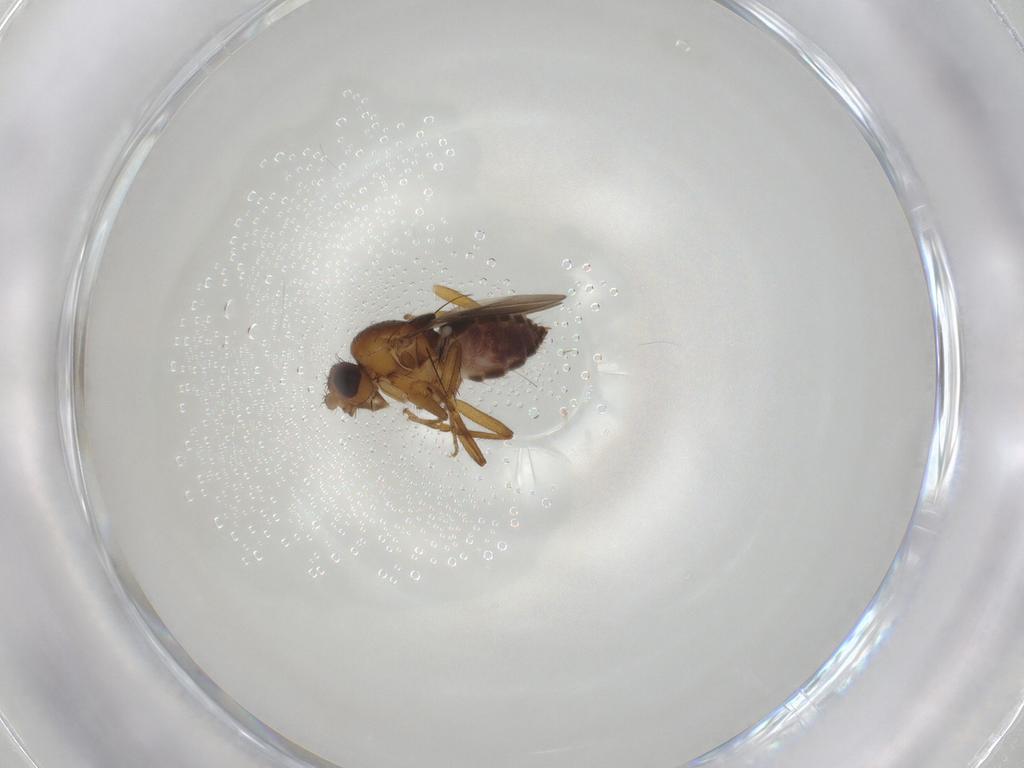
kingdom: Animalia
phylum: Arthropoda
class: Insecta
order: Diptera
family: Sphaeroceridae
